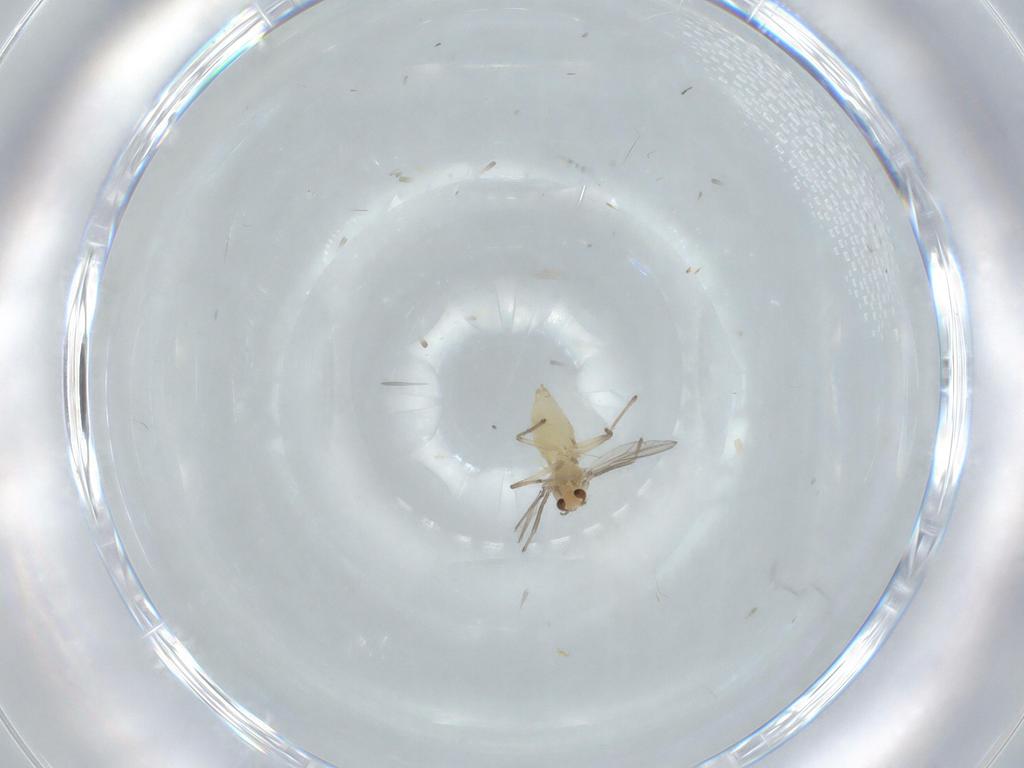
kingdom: Animalia
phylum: Arthropoda
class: Insecta
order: Diptera
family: Chironomidae
